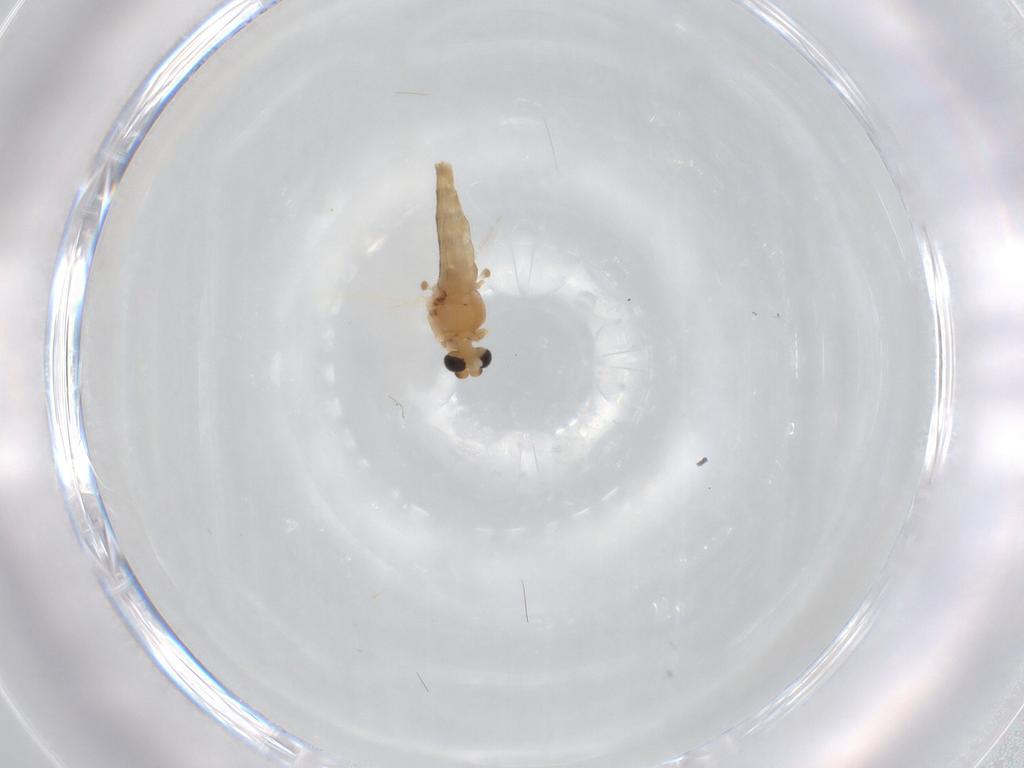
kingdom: Animalia
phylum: Arthropoda
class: Insecta
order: Diptera
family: Chironomidae
